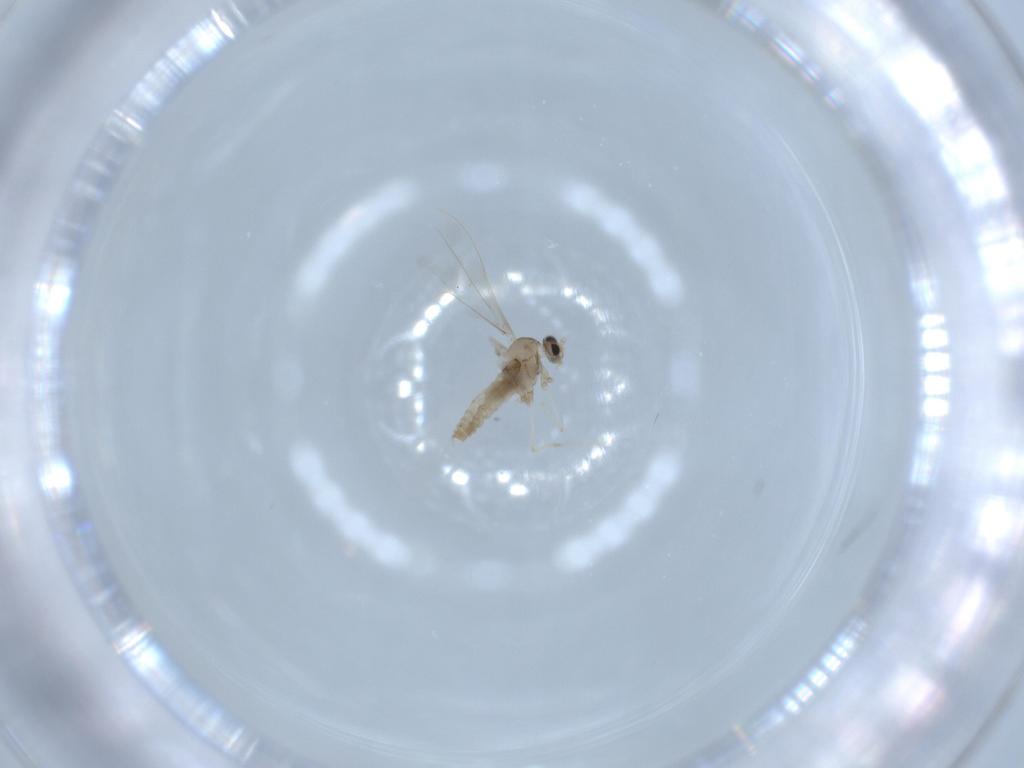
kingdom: Animalia
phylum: Arthropoda
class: Insecta
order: Diptera
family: Cecidomyiidae
